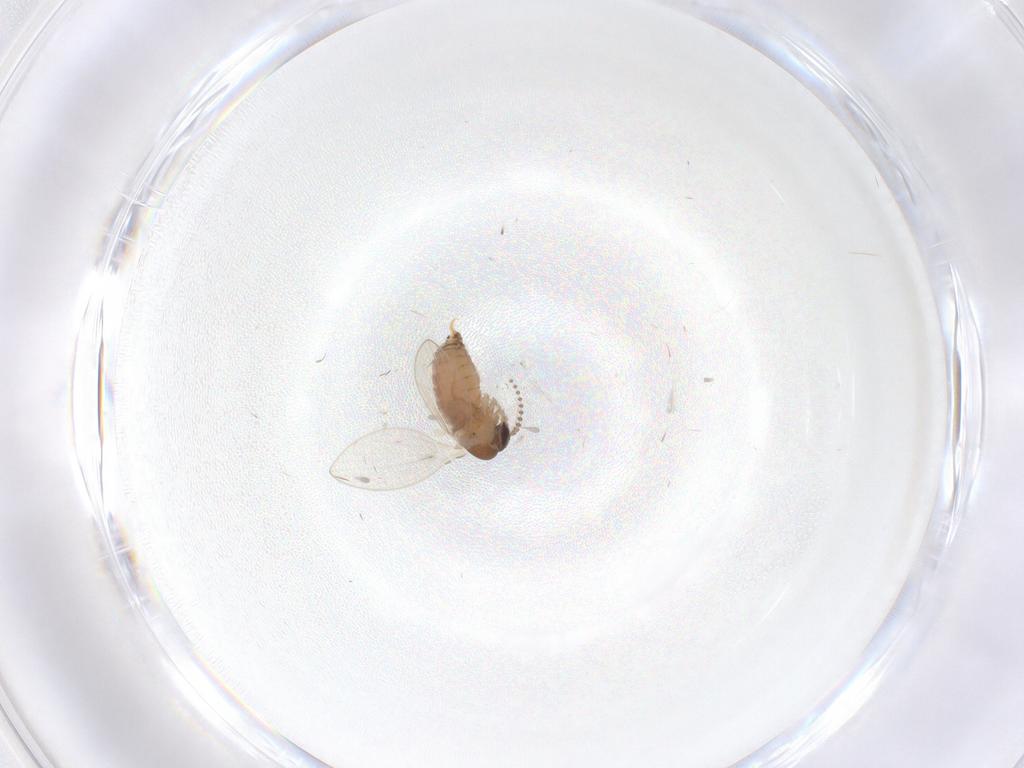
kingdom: Animalia
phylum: Arthropoda
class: Insecta
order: Diptera
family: Psychodidae
